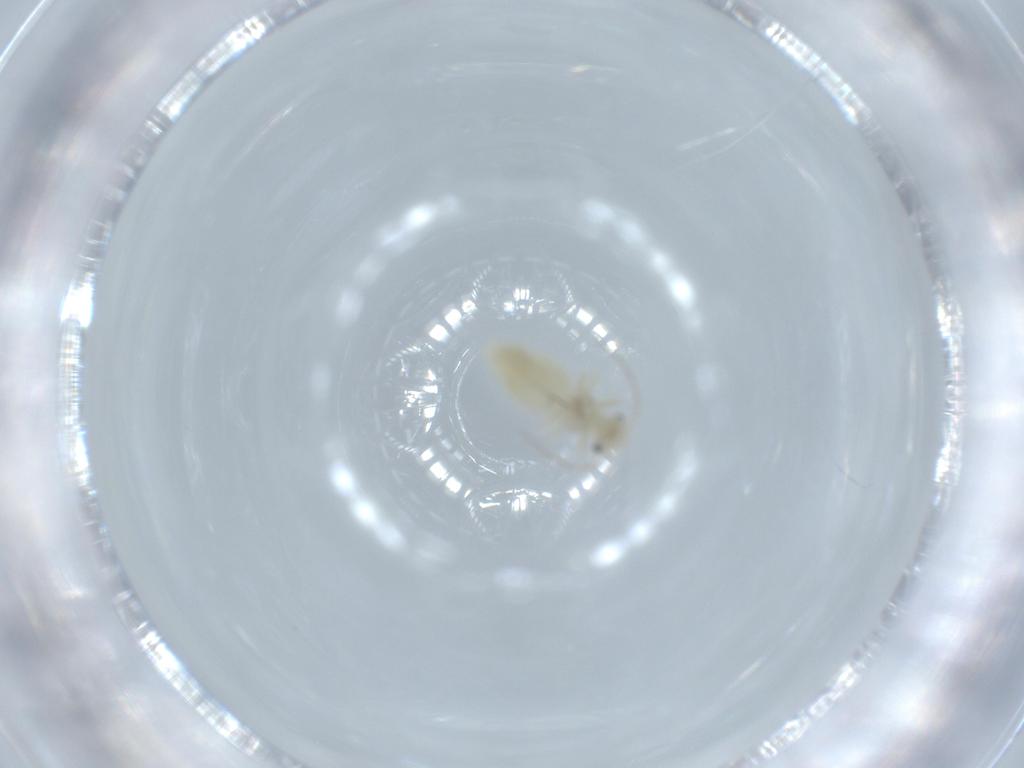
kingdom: Animalia
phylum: Arthropoda
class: Insecta
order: Psocodea
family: Caeciliusidae
